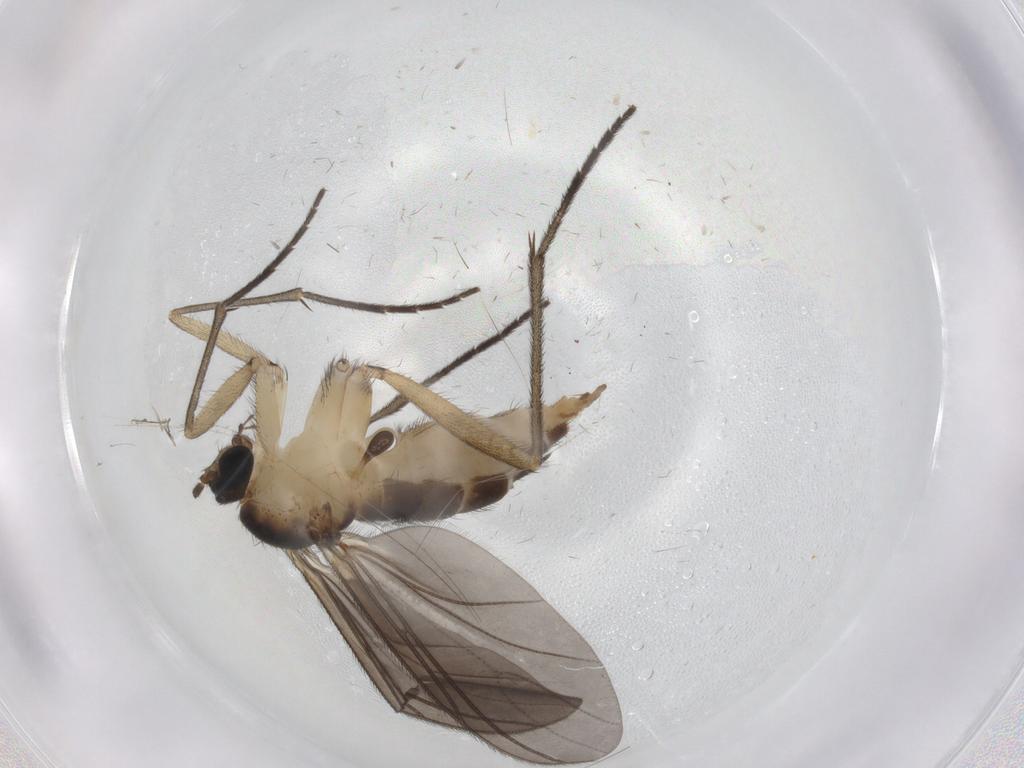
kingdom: Animalia
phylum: Arthropoda
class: Insecta
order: Diptera
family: Sciaridae
